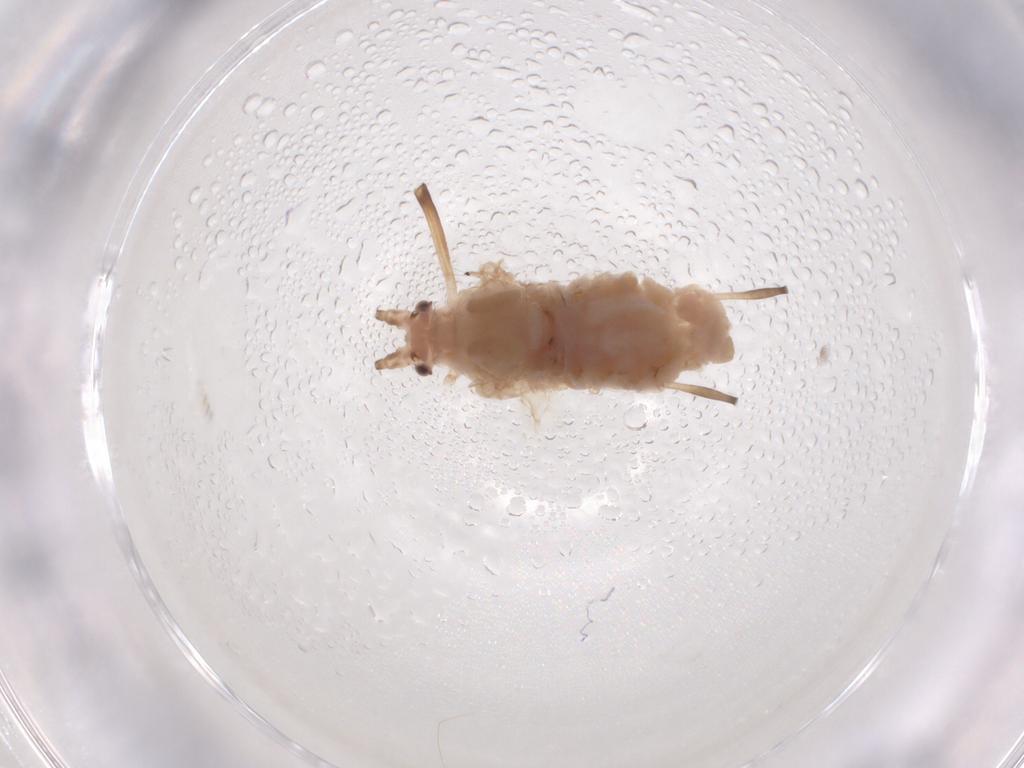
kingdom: Animalia
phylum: Arthropoda
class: Insecta
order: Hemiptera
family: Aphididae
